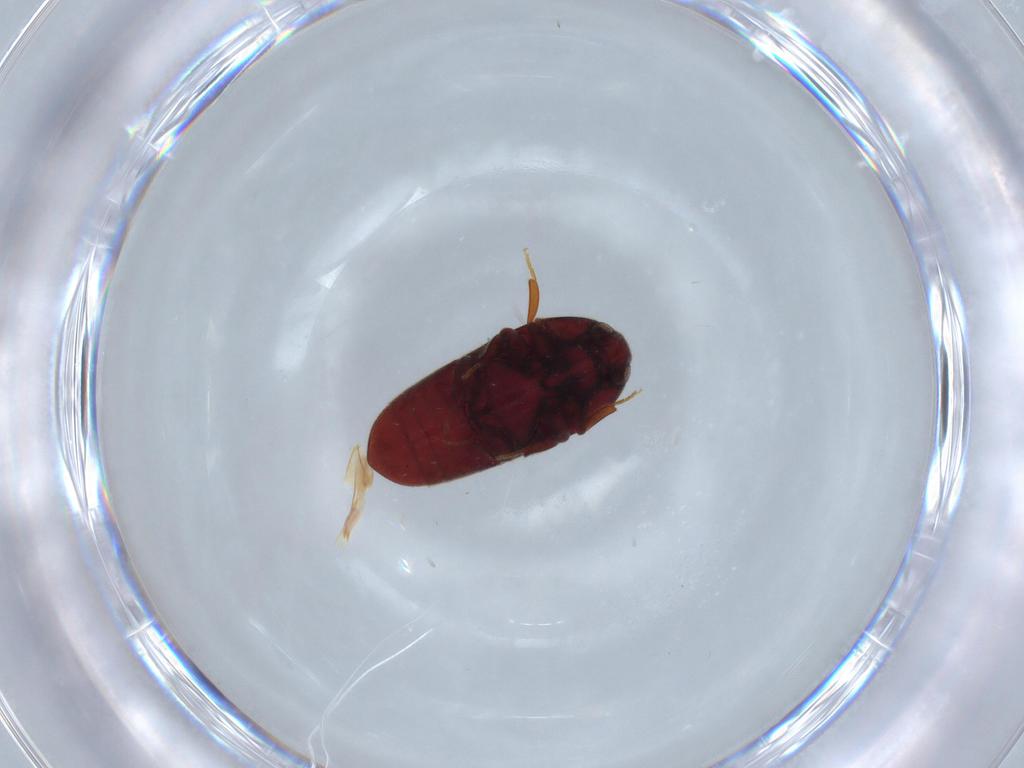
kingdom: Animalia
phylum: Arthropoda
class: Insecta
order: Coleoptera
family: Throscidae
